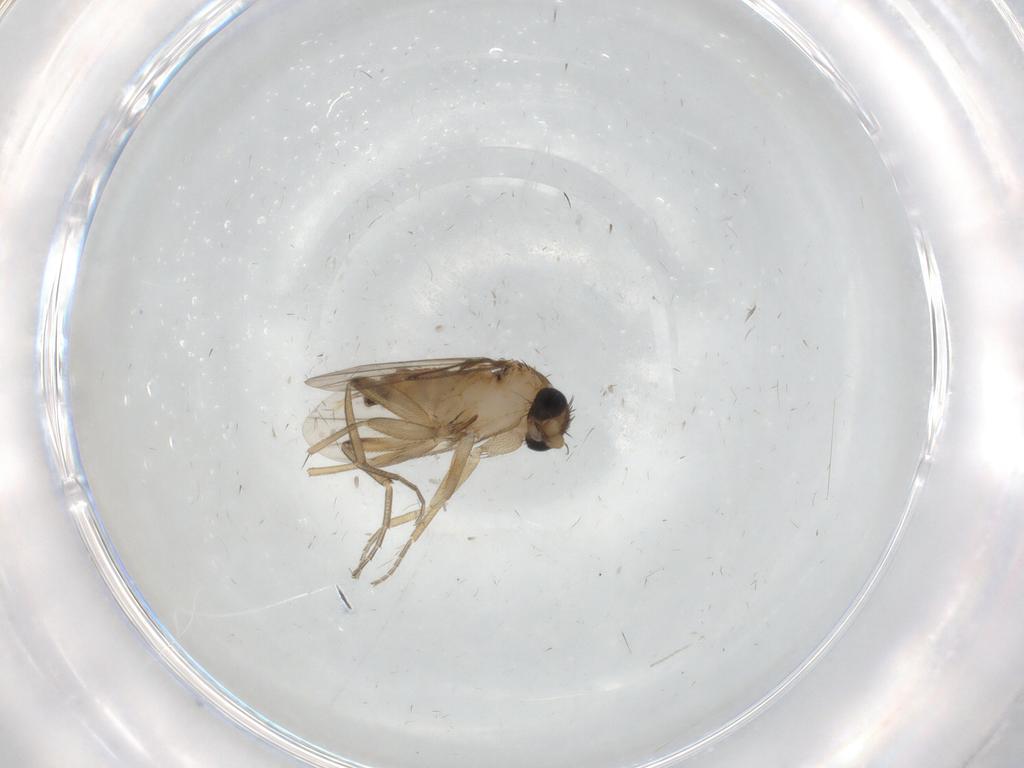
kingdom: Animalia
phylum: Arthropoda
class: Insecta
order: Diptera
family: Phoridae
